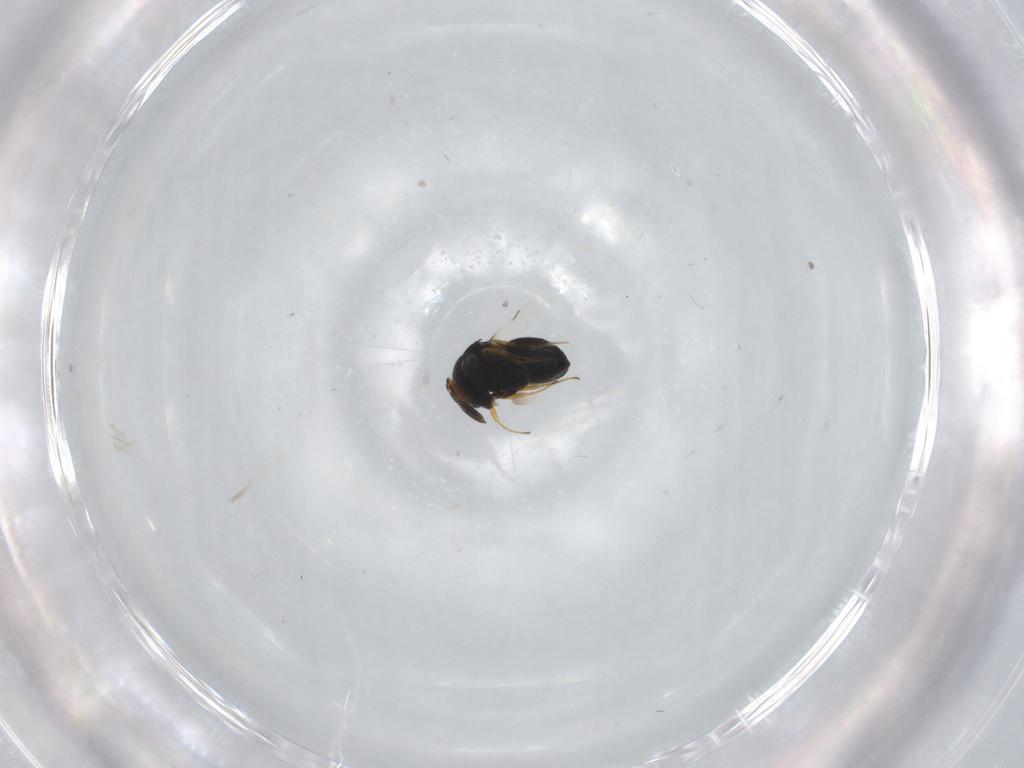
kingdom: Animalia
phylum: Arthropoda
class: Insecta
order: Hymenoptera
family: Scelionidae
